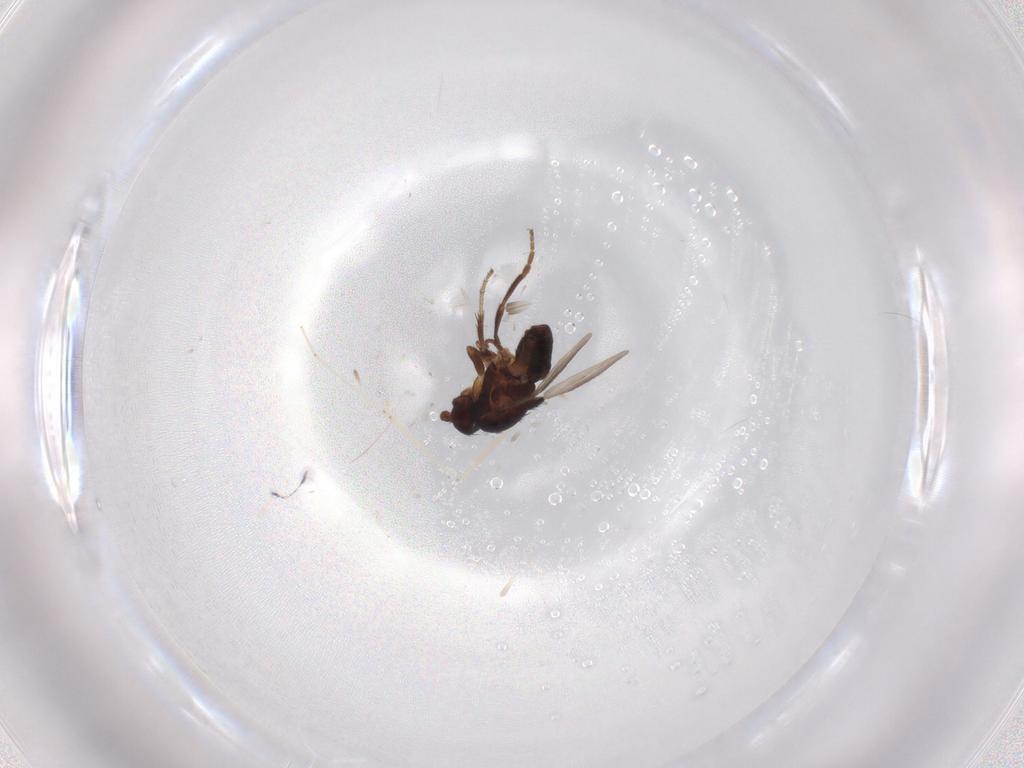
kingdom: Animalia
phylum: Arthropoda
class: Insecta
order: Diptera
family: Sphaeroceridae
